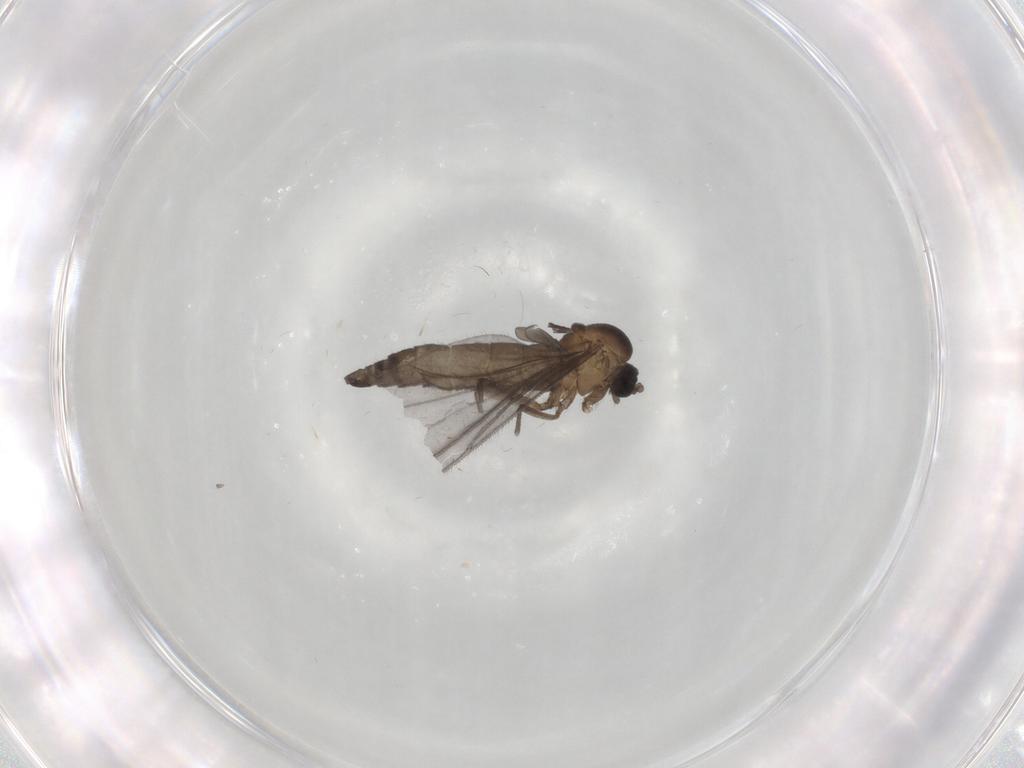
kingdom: Animalia
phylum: Arthropoda
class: Insecta
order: Diptera
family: Sciaridae
